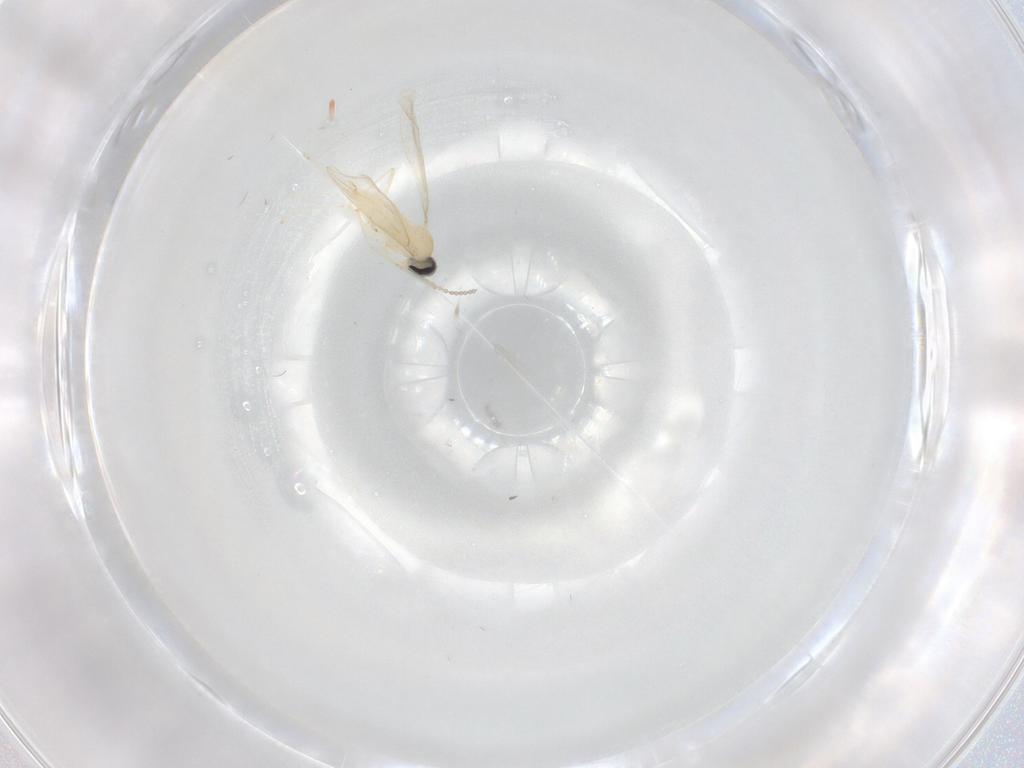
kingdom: Animalia
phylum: Arthropoda
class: Insecta
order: Diptera
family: Cecidomyiidae
